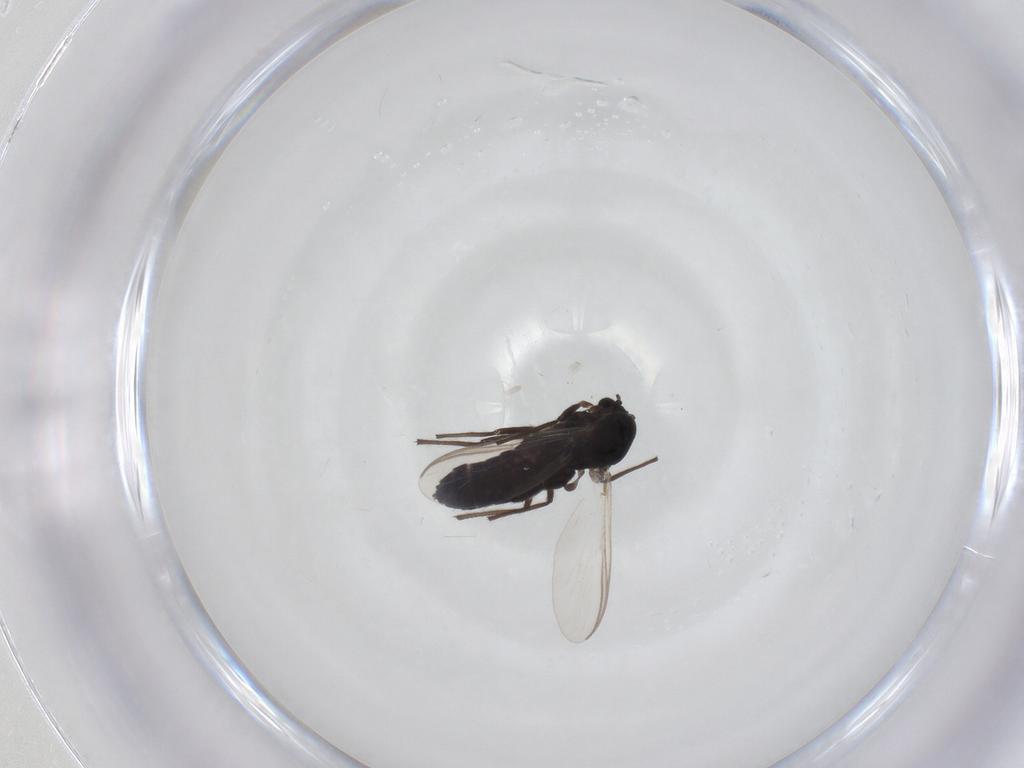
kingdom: Animalia
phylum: Arthropoda
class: Insecta
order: Diptera
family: Chironomidae
